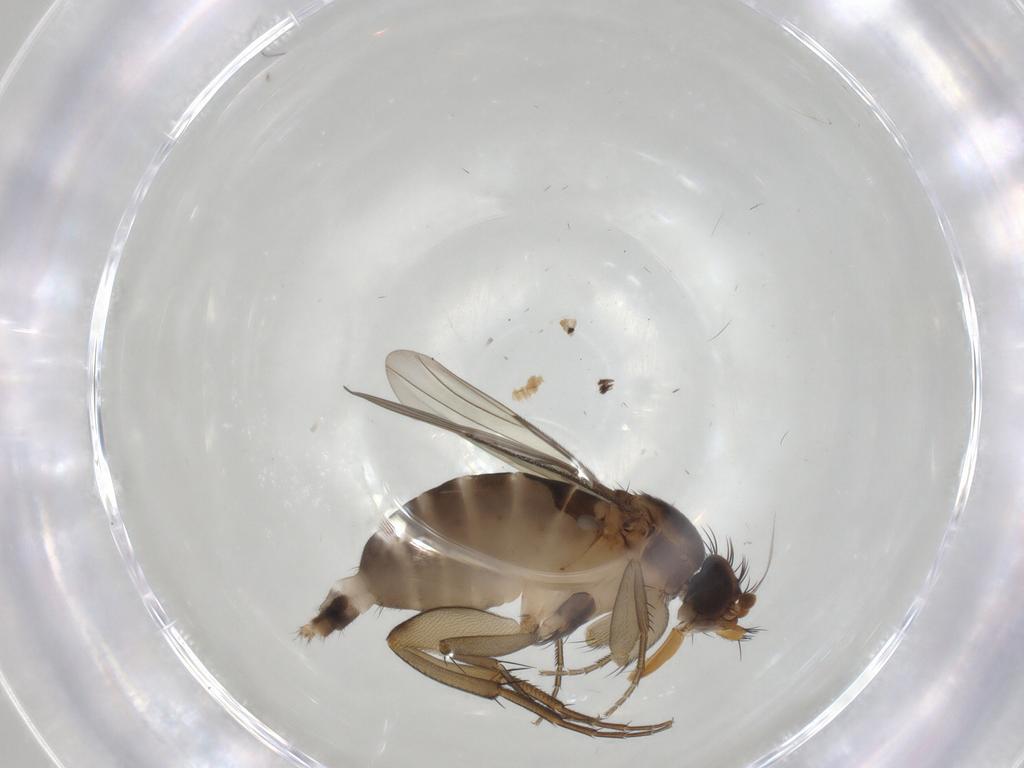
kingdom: Animalia
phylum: Arthropoda
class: Insecta
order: Diptera
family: Phoridae
